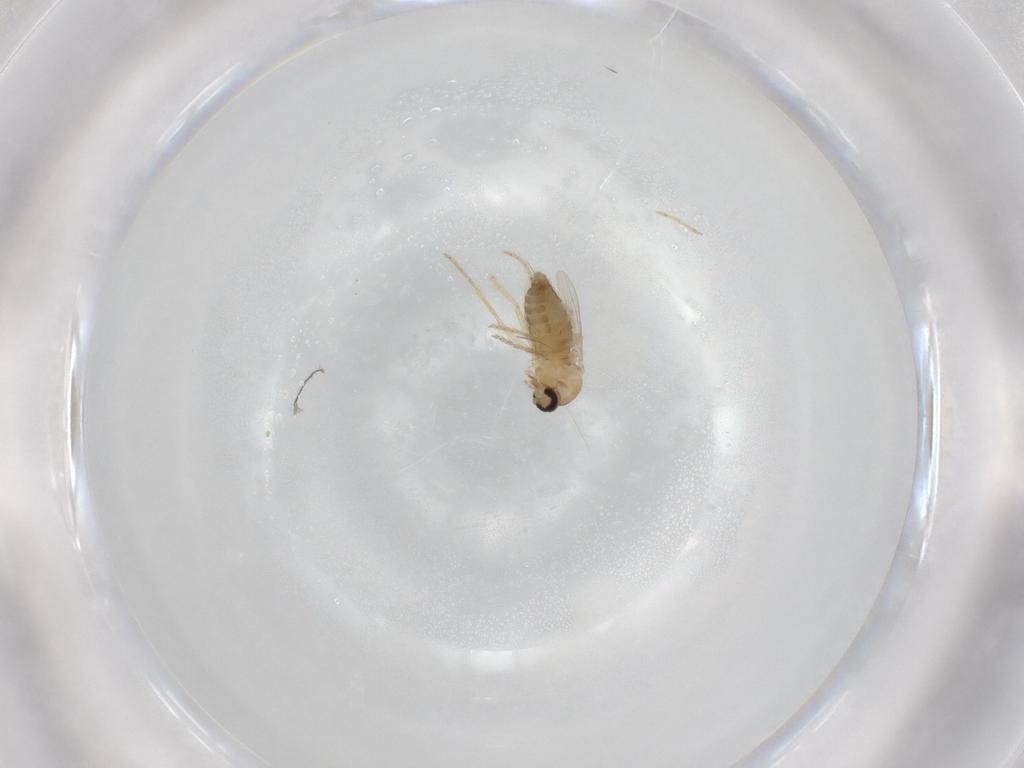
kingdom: Animalia
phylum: Arthropoda
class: Insecta
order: Diptera
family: Ceratopogonidae
